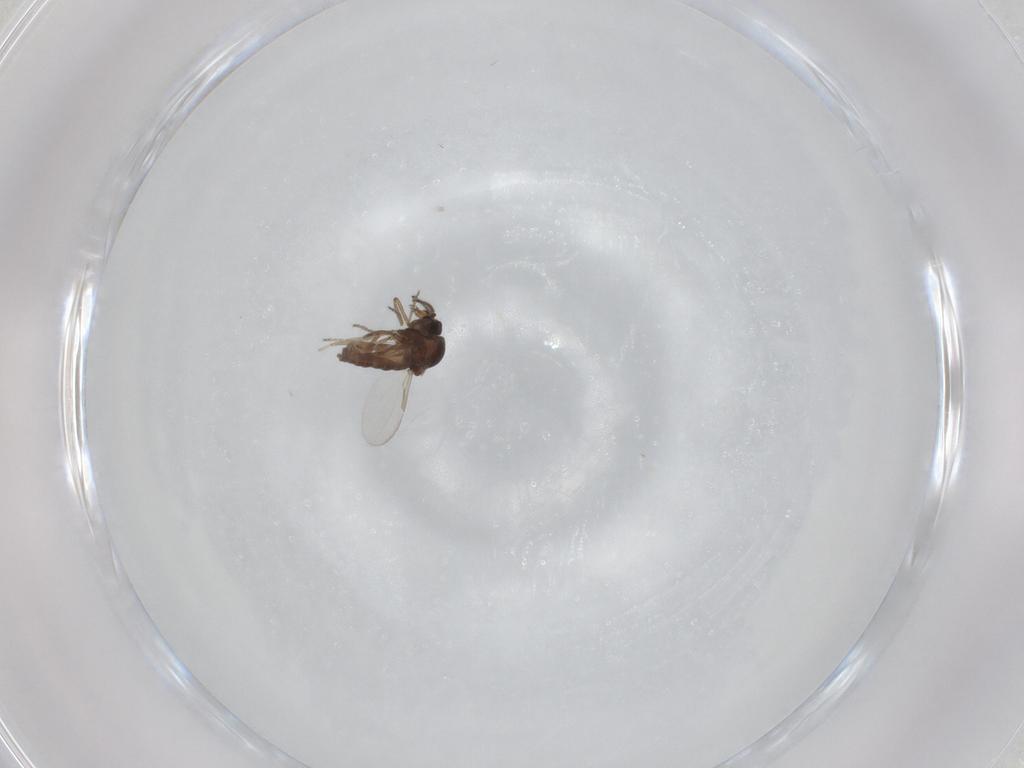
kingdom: Animalia
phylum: Arthropoda
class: Insecta
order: Diptera
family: Ceratopogonidae
